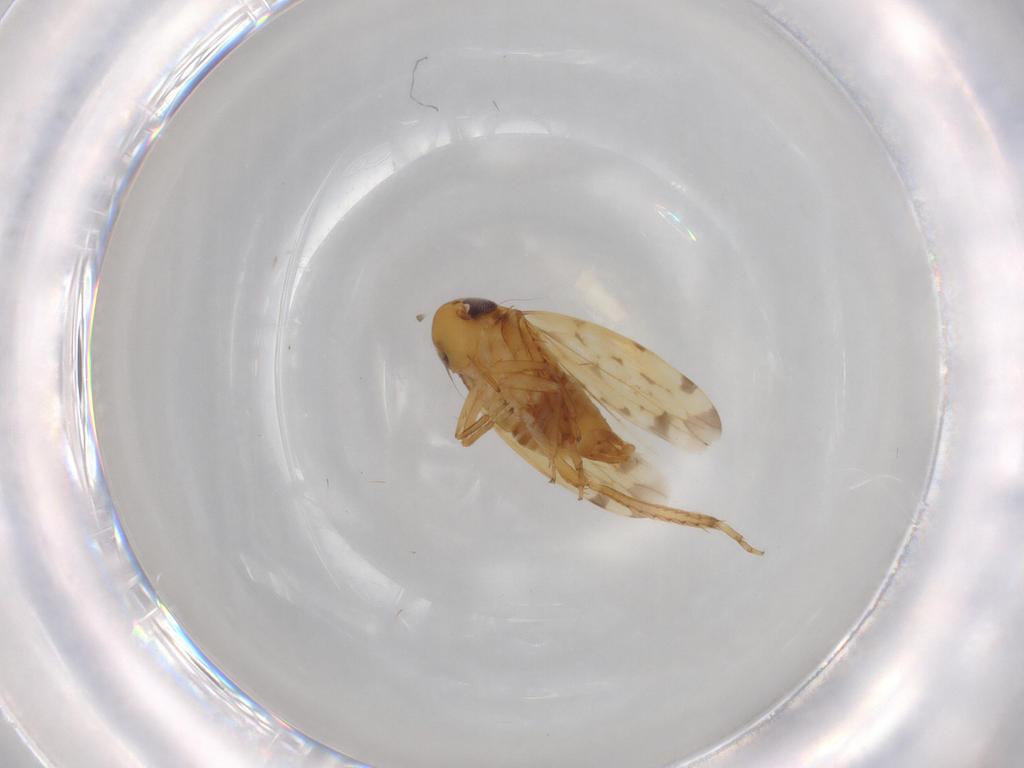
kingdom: Animalia
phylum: Arthropoda
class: Insecta
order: Hemiptera
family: Cicadellidae
